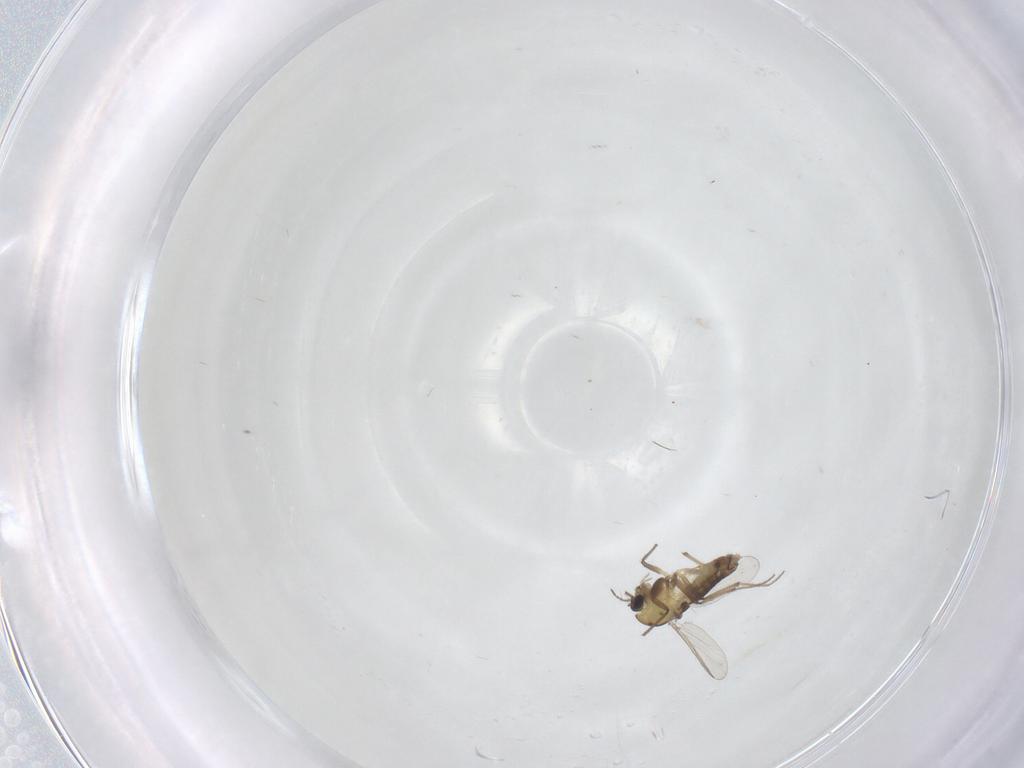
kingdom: Animalia
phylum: Arthropoda
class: Insecta
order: Diptera
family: Chironomidae
